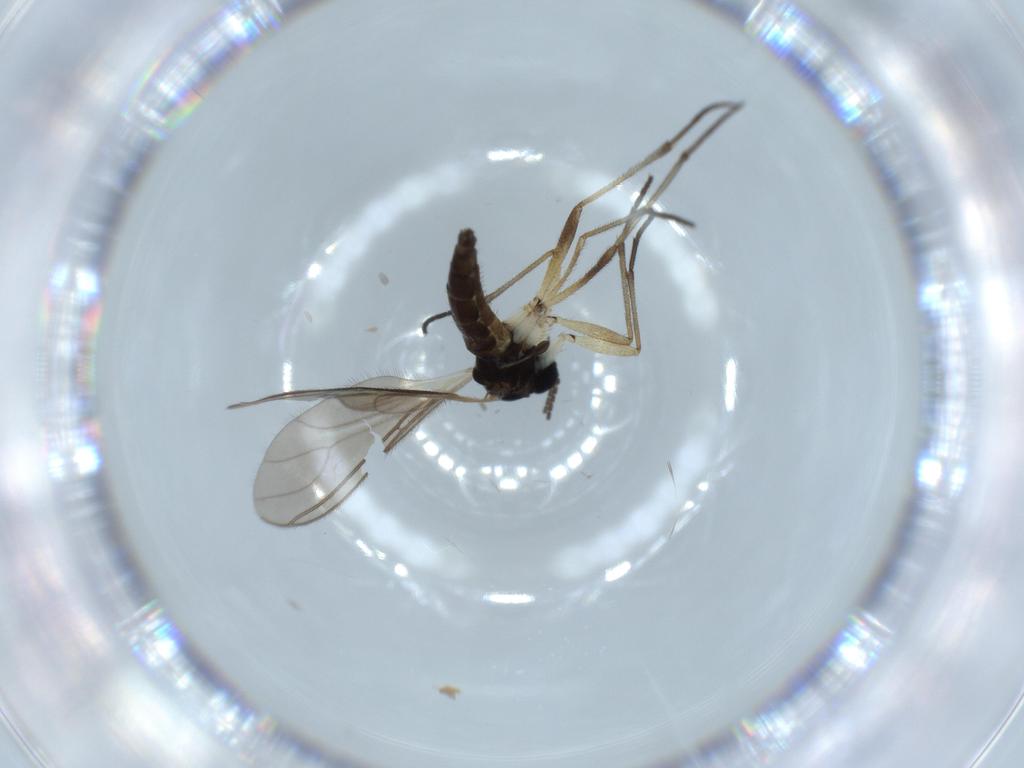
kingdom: Animalia
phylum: Arthropoda
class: Insecta
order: Diptera
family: Sciaridae
